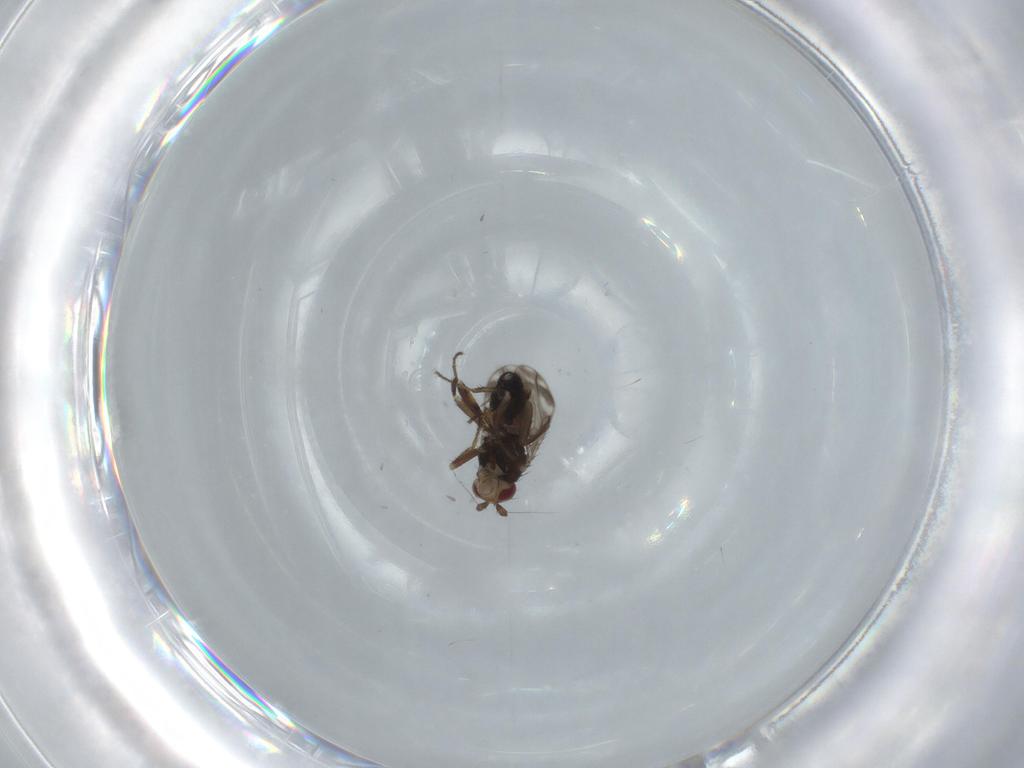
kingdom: Animalia
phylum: Arthropoda
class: Insecta
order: Diptera
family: Sphaeroceridae
